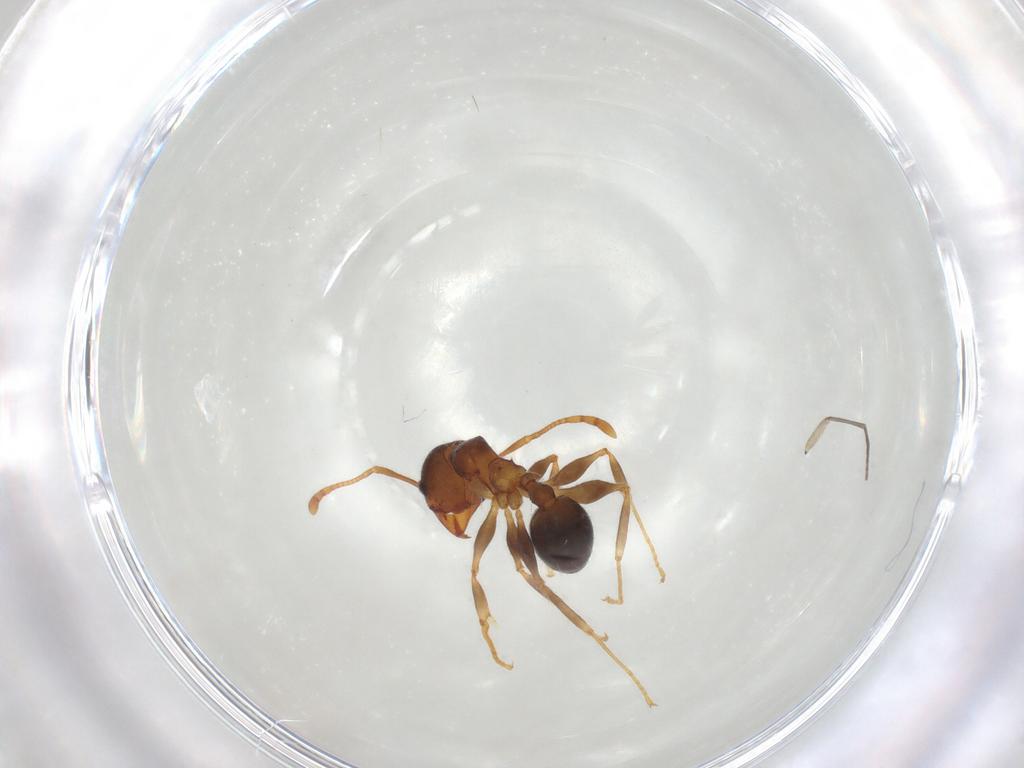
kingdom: Animalia
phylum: Arthropoda
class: Insecta
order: Hymenoptera
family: Formicidae
